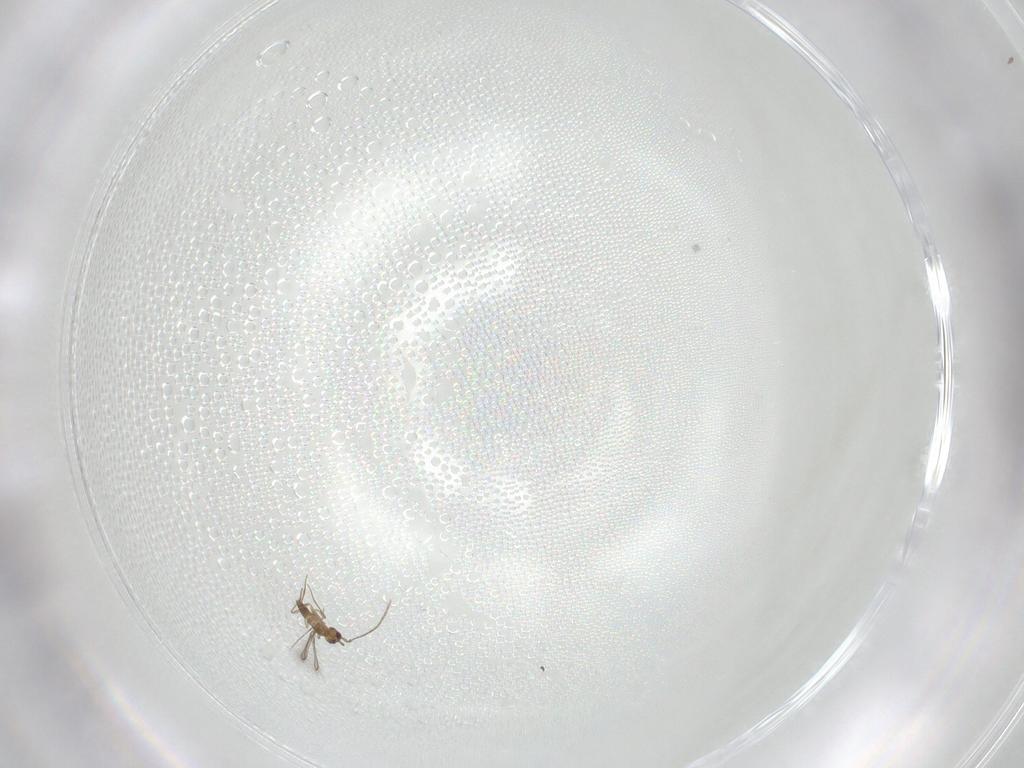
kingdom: Animalia
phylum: Arthropoda
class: Insecta
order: Hymenoptera
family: Mymaridae
